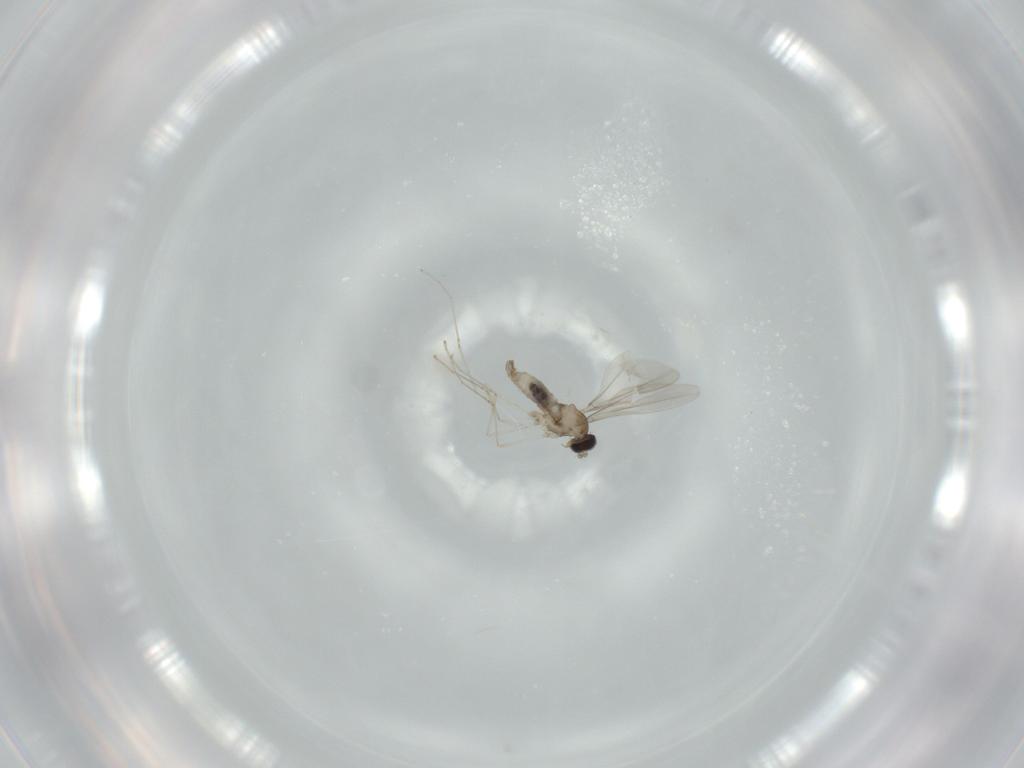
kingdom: Animalia
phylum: Arthropoda
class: Insecta
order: Diptera
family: Chironomidae
